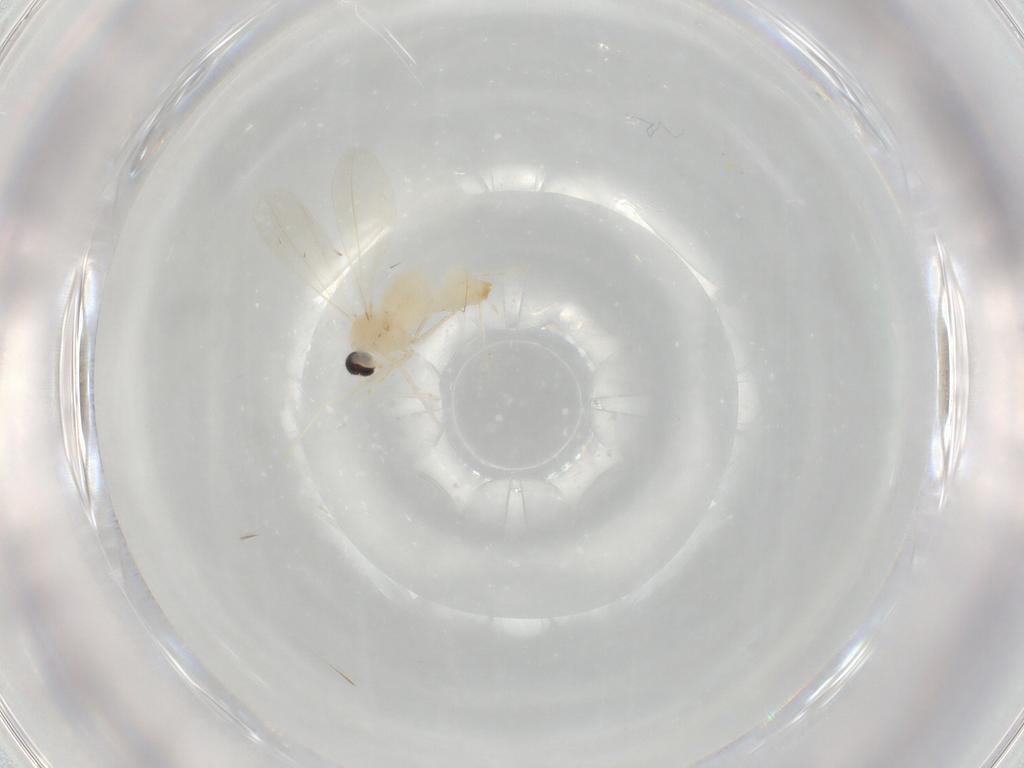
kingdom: Animalia
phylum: Arthropoda
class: Insecta
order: Diptera
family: Cecidomyiidae
